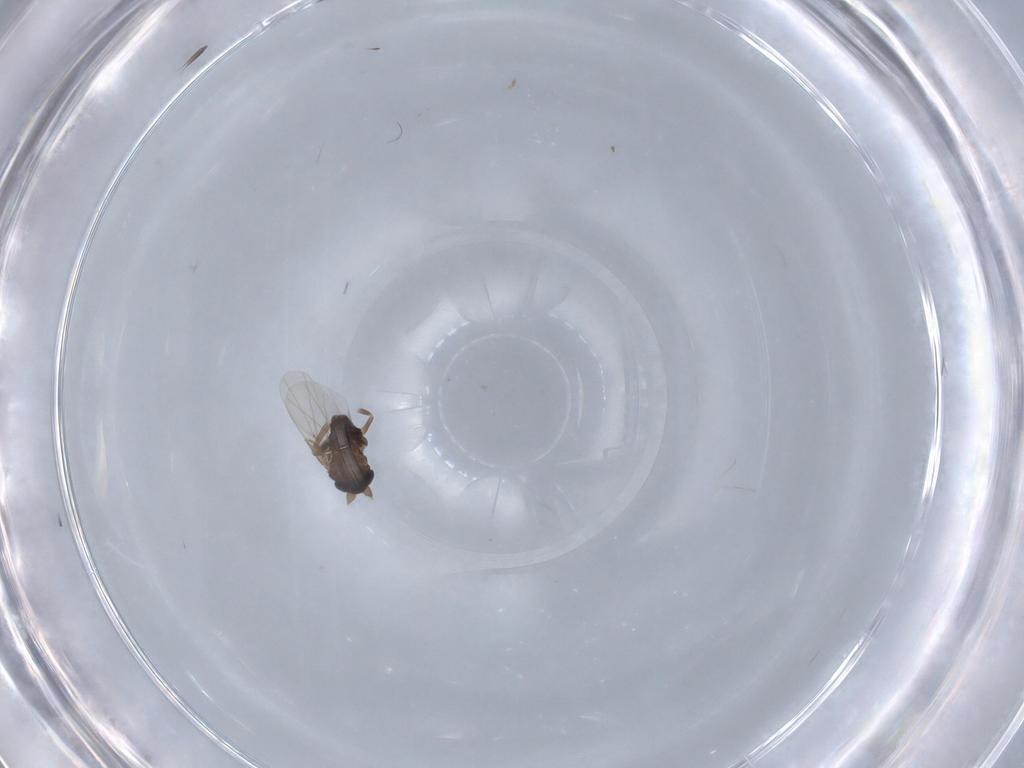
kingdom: Animalia
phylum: Arthropoda
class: Insecta
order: Diptera
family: Psychodidae
